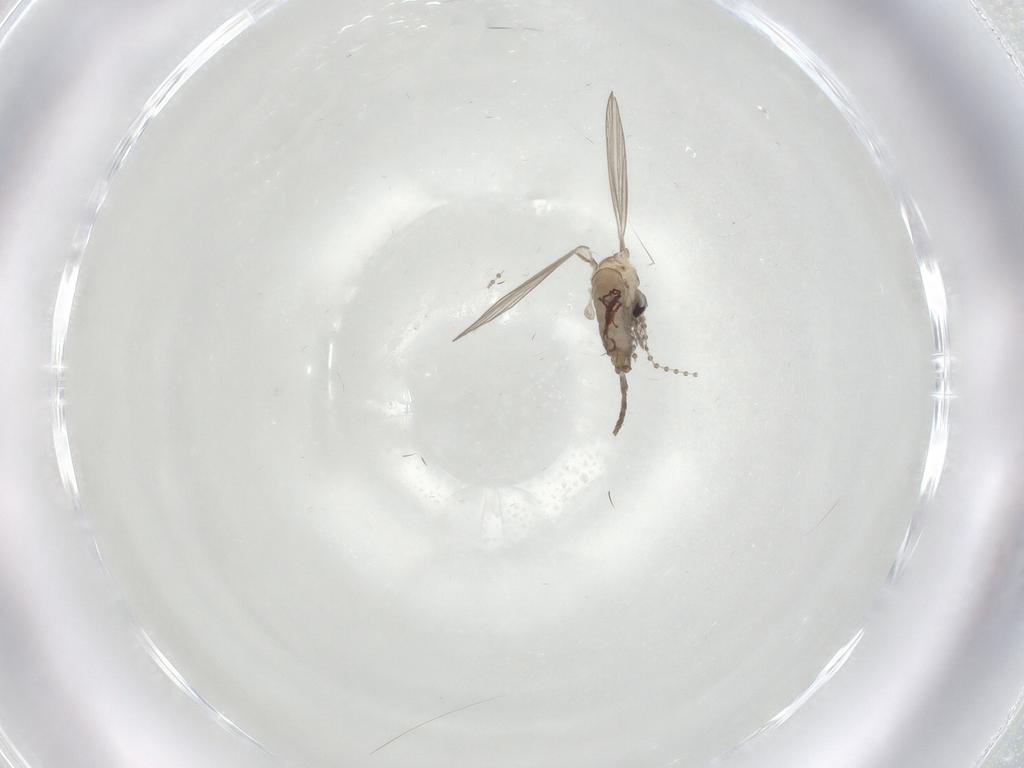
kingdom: Animalia
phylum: Arthropoda
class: Insecta
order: Diptera
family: Psychodidae
